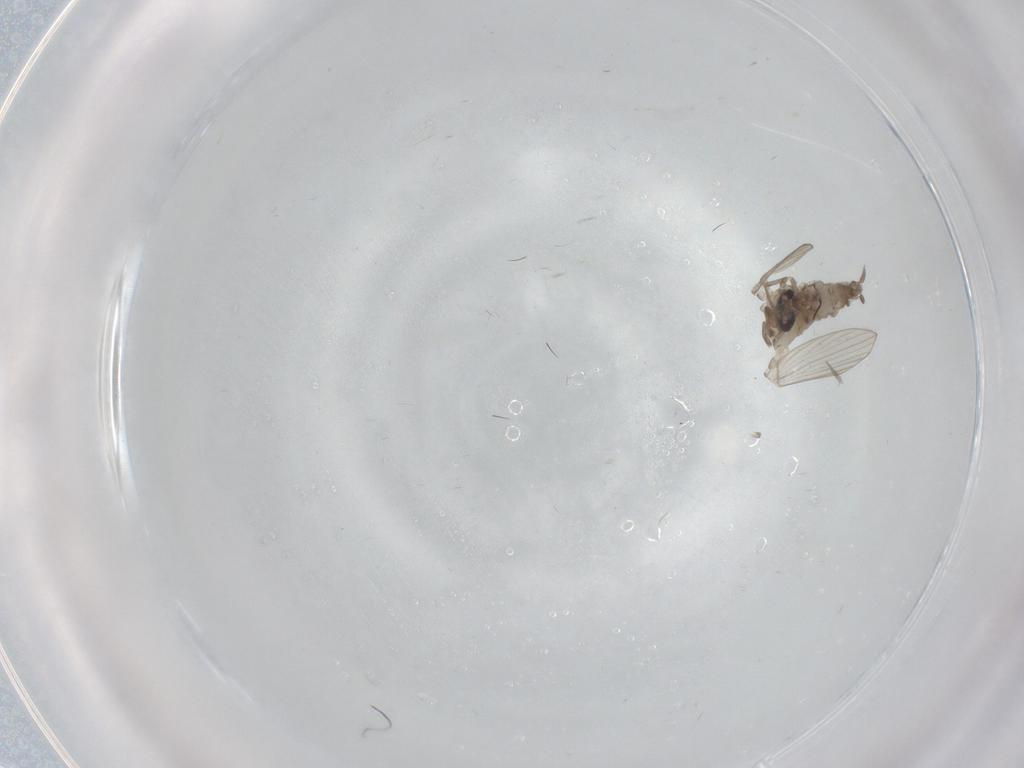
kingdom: Animalia
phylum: Arthropoda
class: Insecta
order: Diptera
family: Psychodidae
